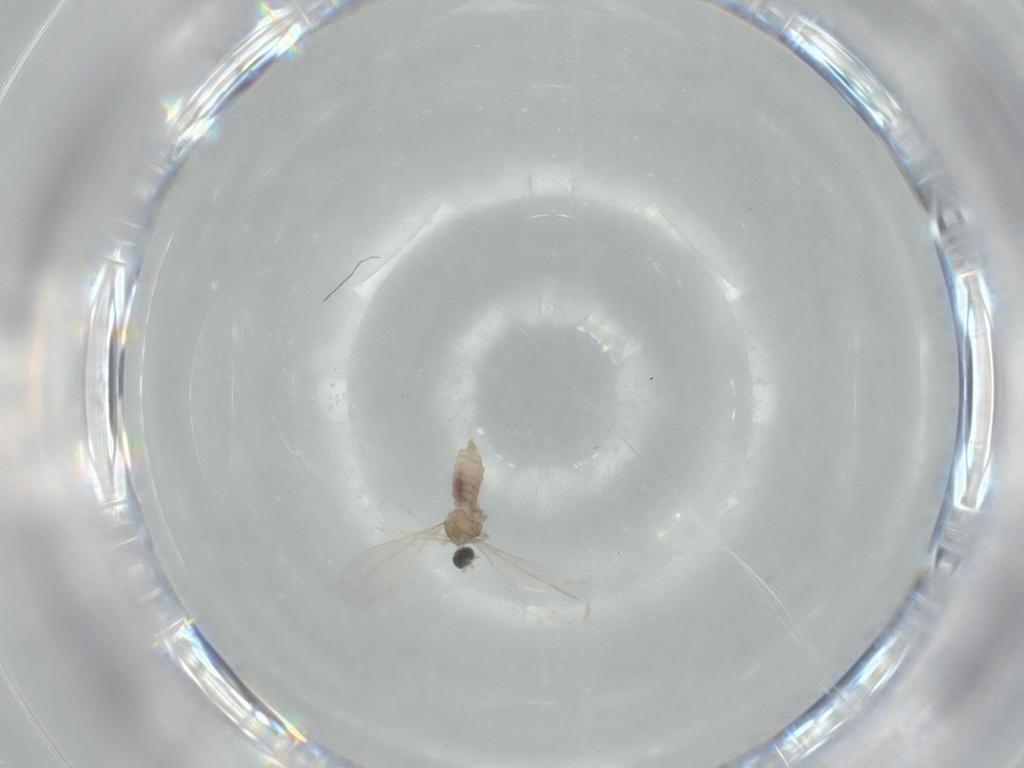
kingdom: Animalia
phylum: Arthropoda
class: Insecta
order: Diptera
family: Cecidomyiidae
